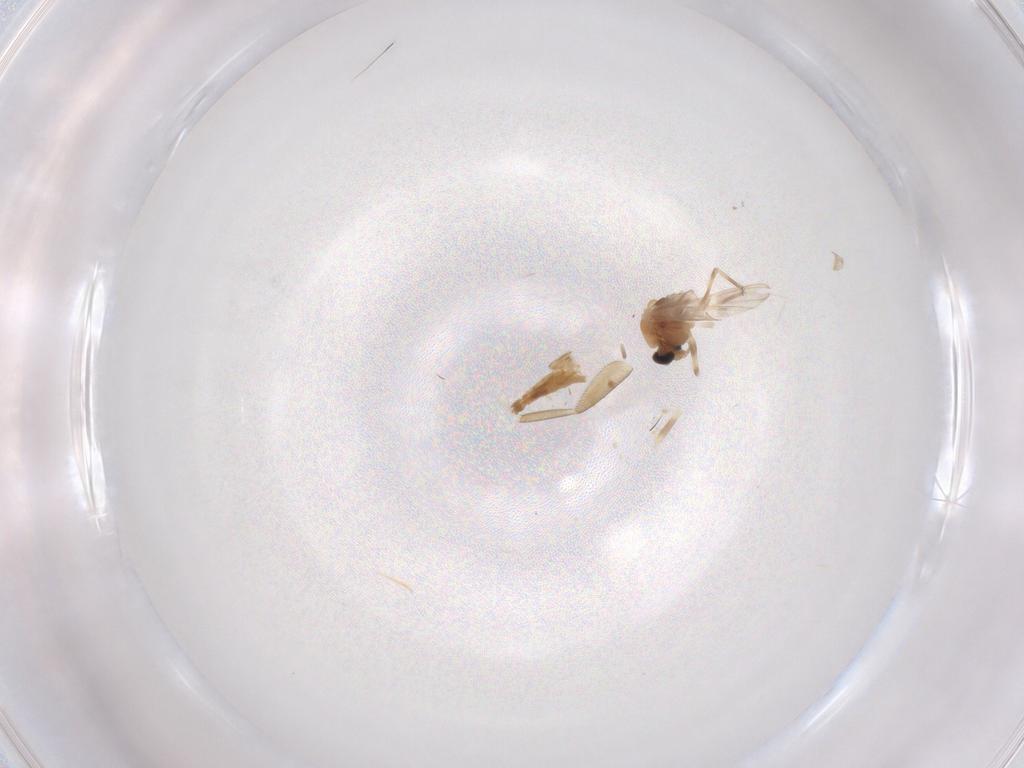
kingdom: Animalia
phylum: Arthropoda
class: Insecta
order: Diptera
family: Chironomidae
